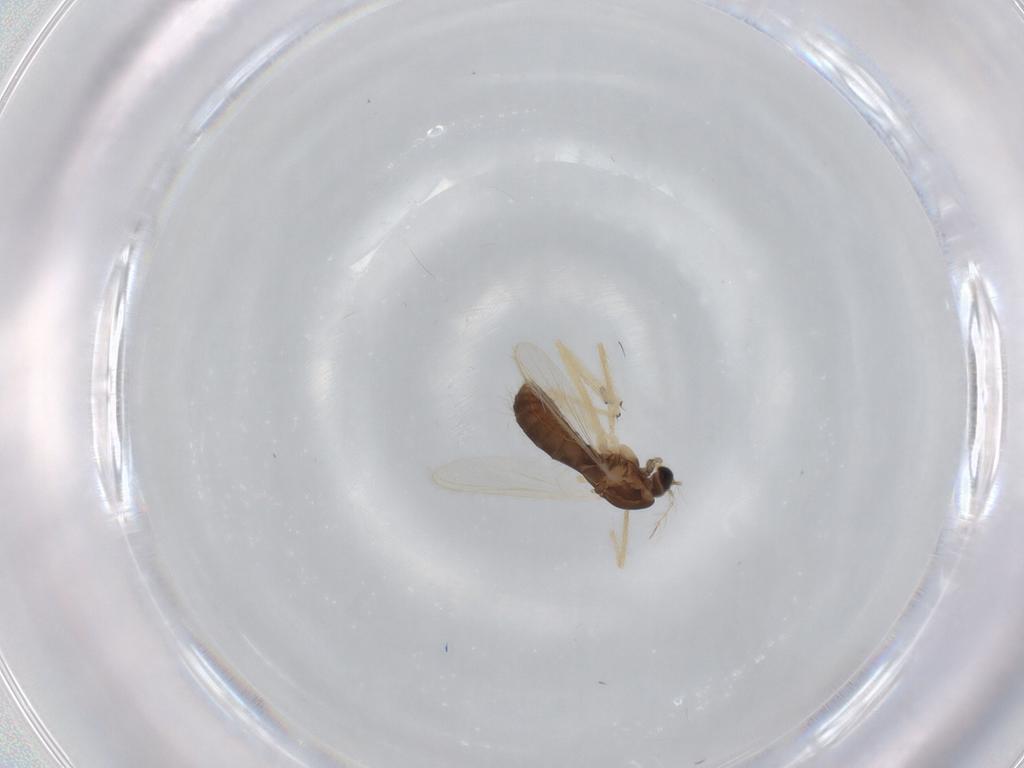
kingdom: Animalia
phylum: Arthropoda
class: Insecta
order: Diptera
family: Chironomidae
